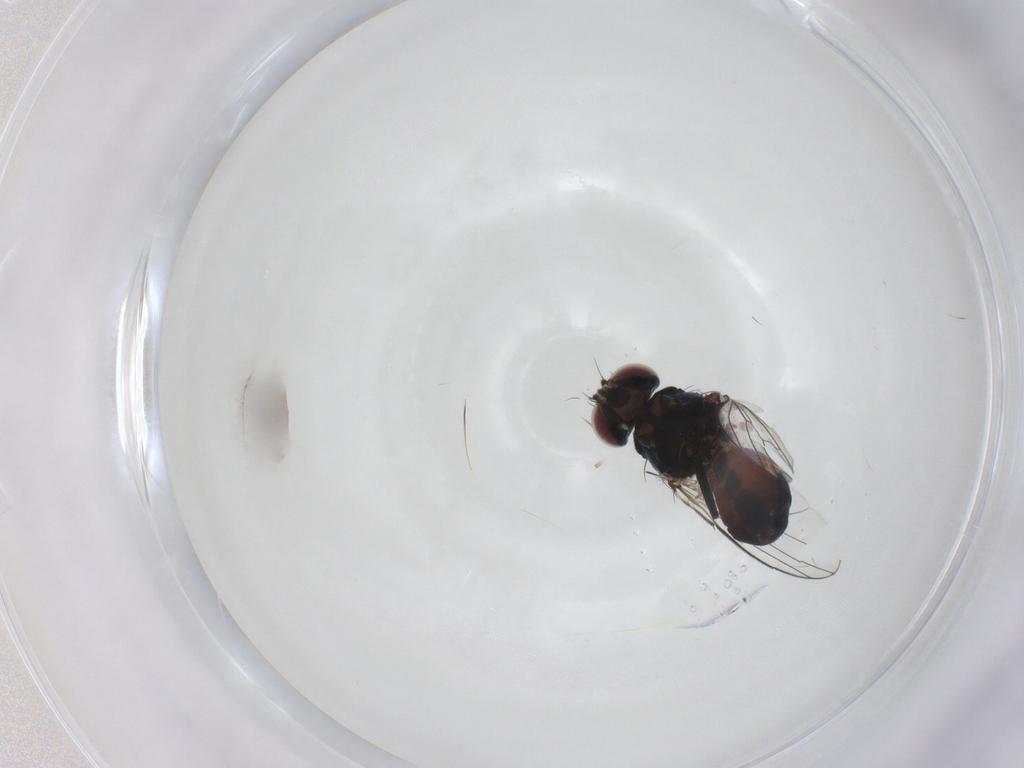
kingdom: Animalia
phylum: Arthropoda
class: Insecta
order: Diptera
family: Carnidae
